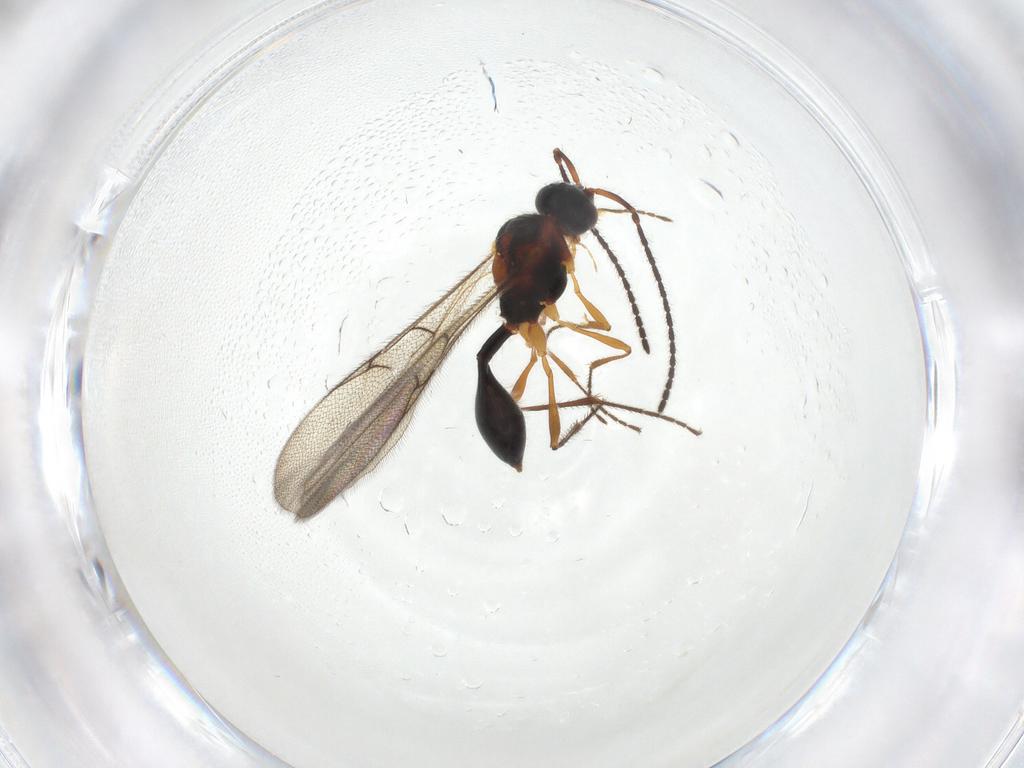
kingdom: Animalia
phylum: Arthropoda
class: Insecta
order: Hymenoptera
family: Diapriidae
